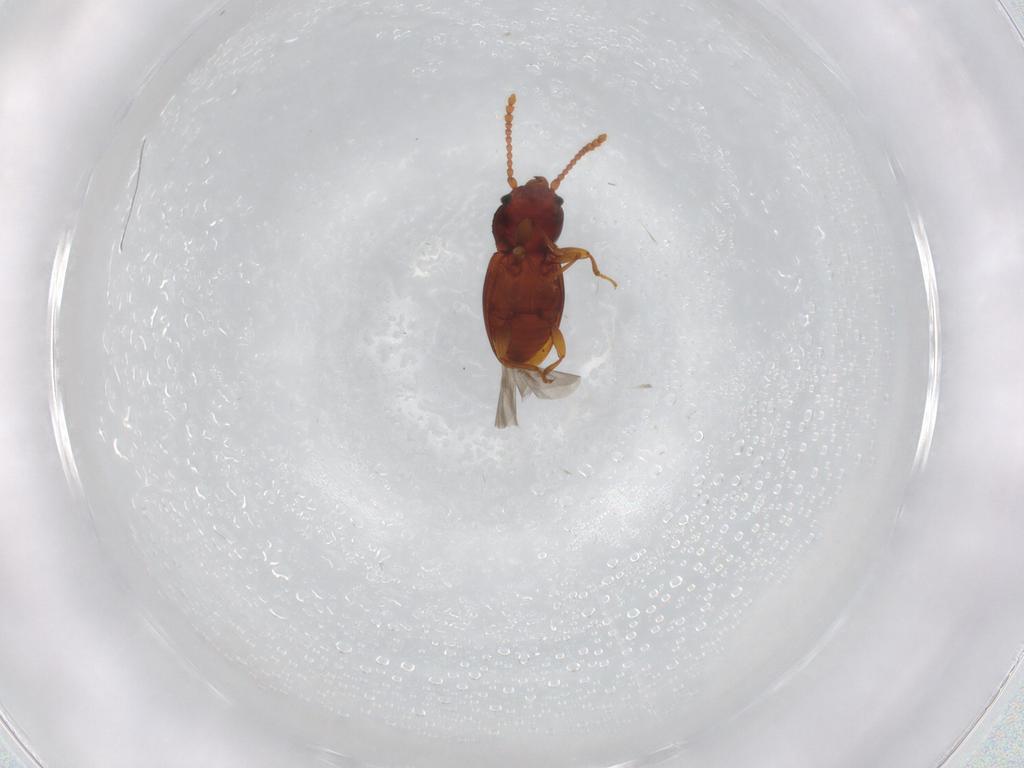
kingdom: Animalia
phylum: Arthropoda
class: Insecta
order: Coleoptera
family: Laemophloeidae
